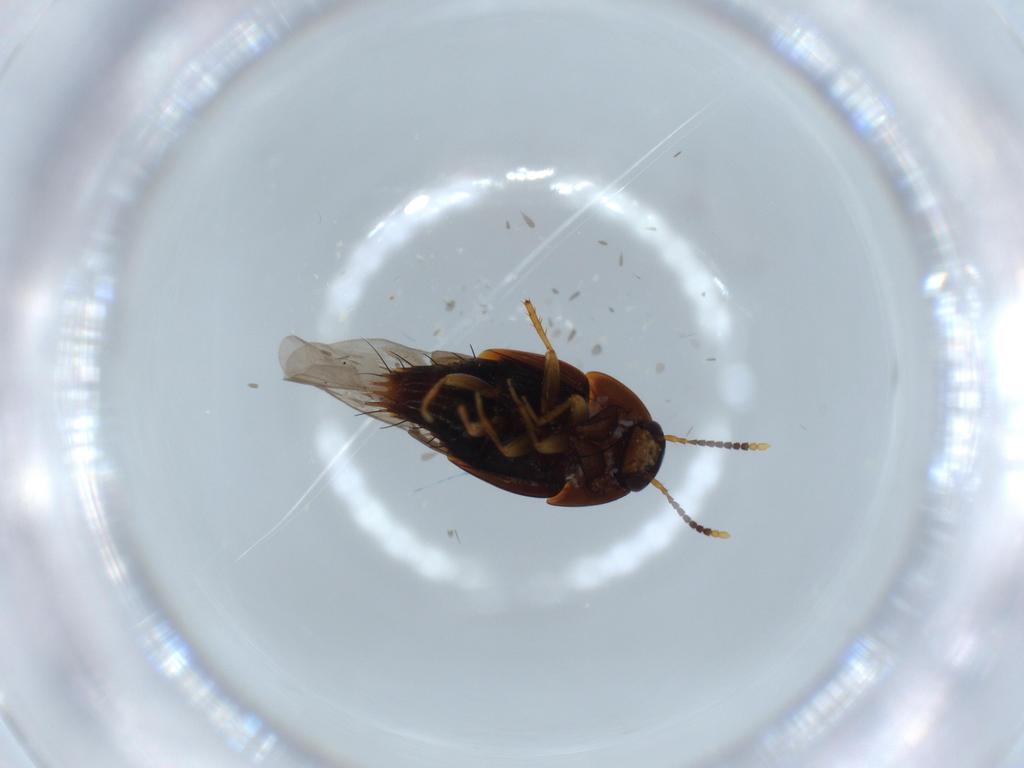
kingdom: Animalia
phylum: Arthropoda
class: Insecta
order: Coleoptera
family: Staphylinidae
